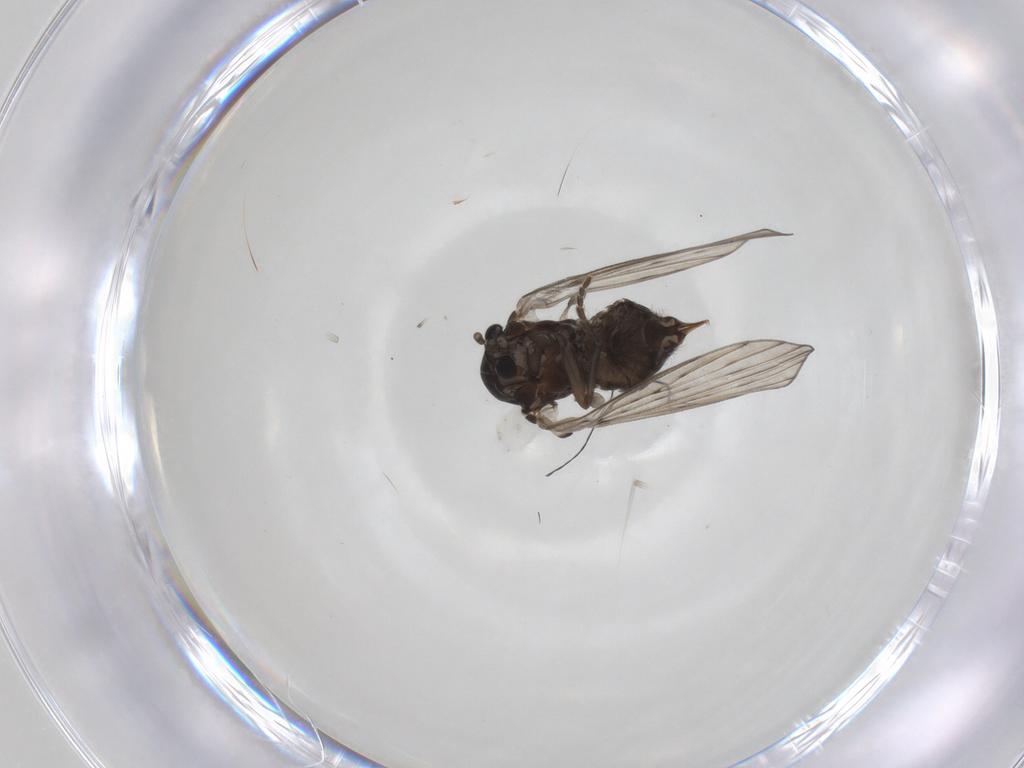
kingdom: Animalia
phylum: Arthropoda
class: Insecta
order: Diptera
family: Psychodidae
